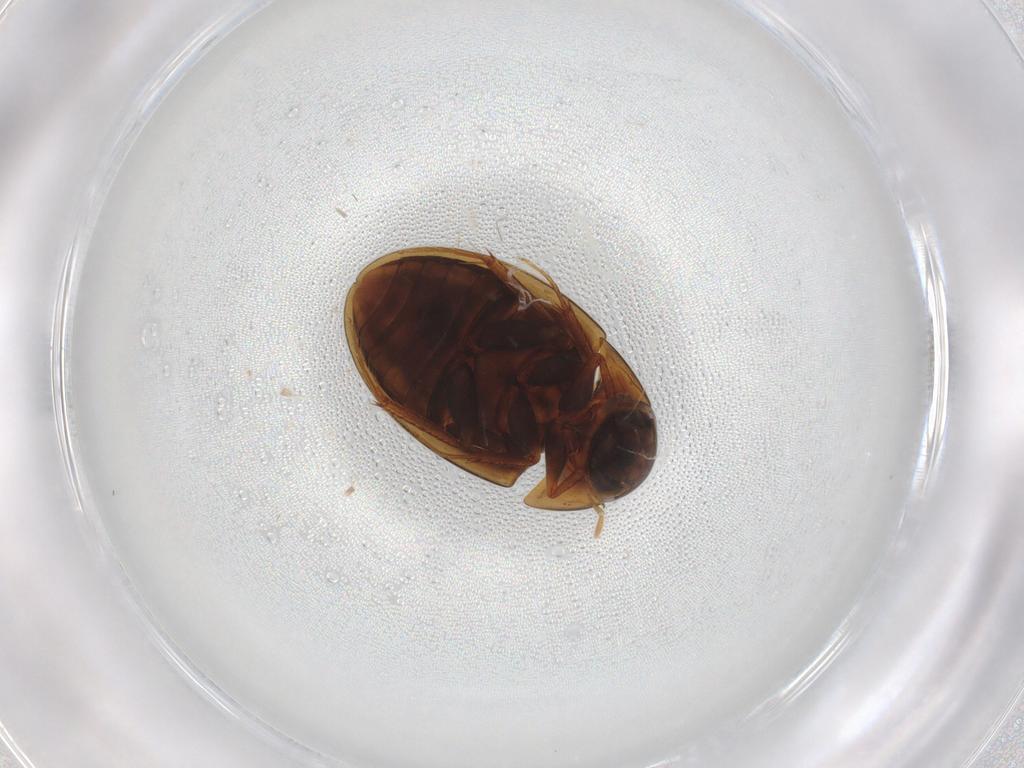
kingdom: Animalia
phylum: Arthropoda
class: Insecta
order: Coleoptera
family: Hydrophilidae
